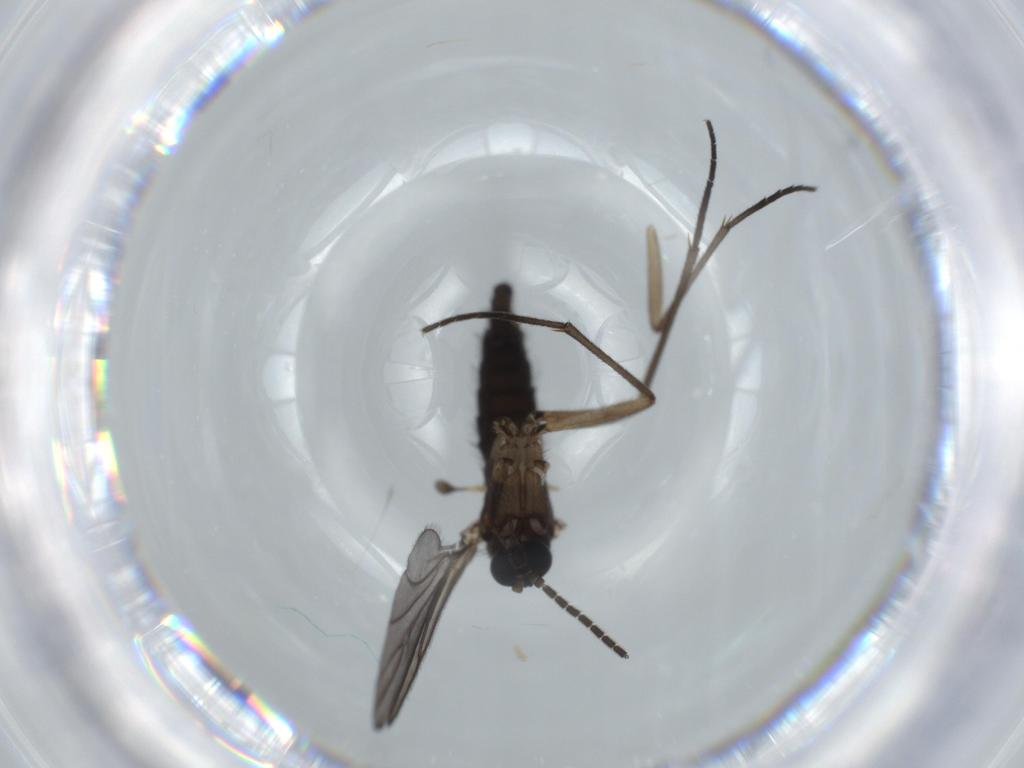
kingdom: Animalia
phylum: Arthropoda
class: Insecta
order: Diptera
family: Sciaridae
